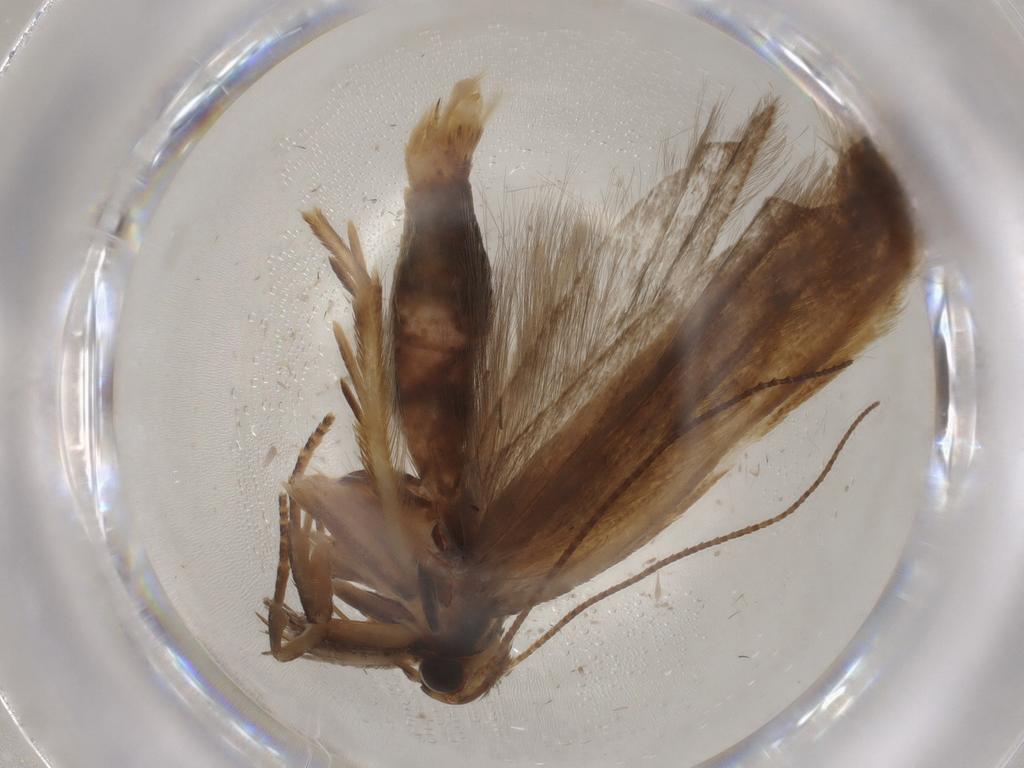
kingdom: Animalia
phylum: Arthropoda
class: Insecta
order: Lepidoptera
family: Gelechiidae
